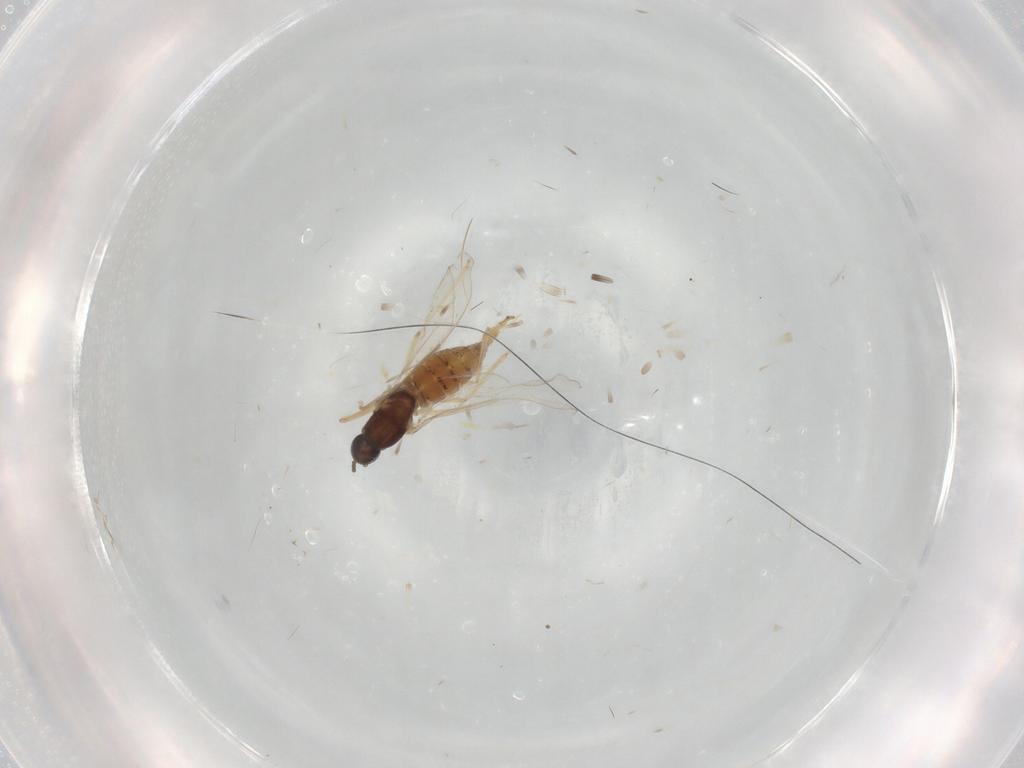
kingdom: Animalia
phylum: Arthropoda
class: Insecta
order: Diptera
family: Cecidomyiidae
